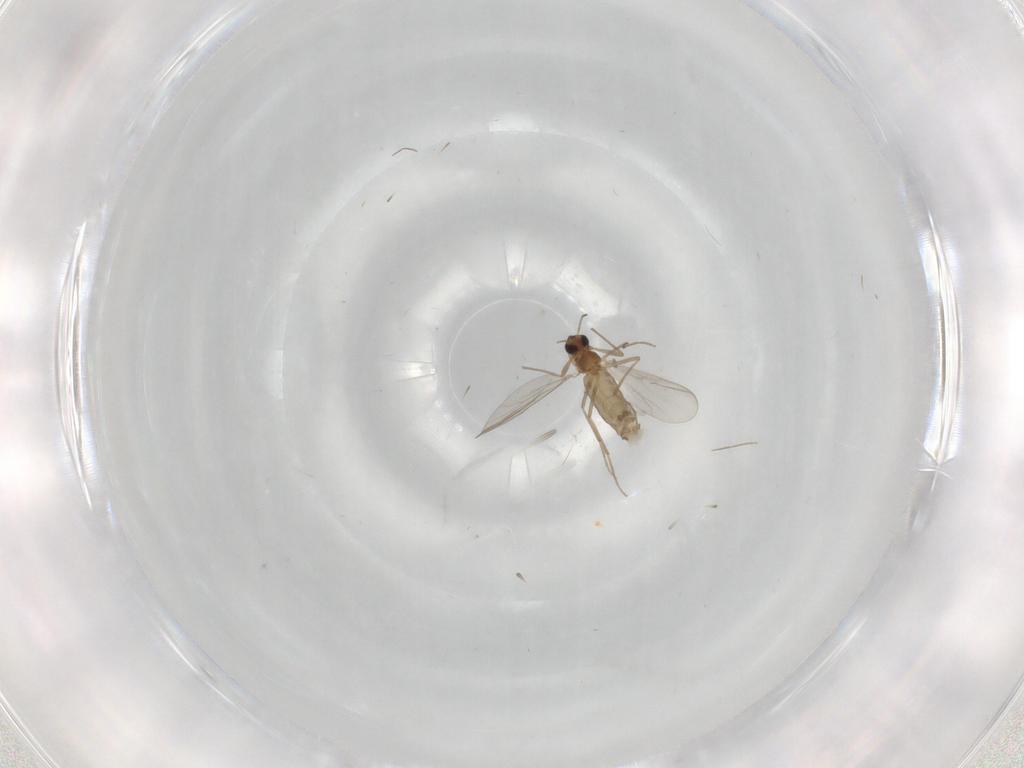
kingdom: Animalia
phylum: Arthropoda
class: Insecta
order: Diptera
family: Chironomidae
